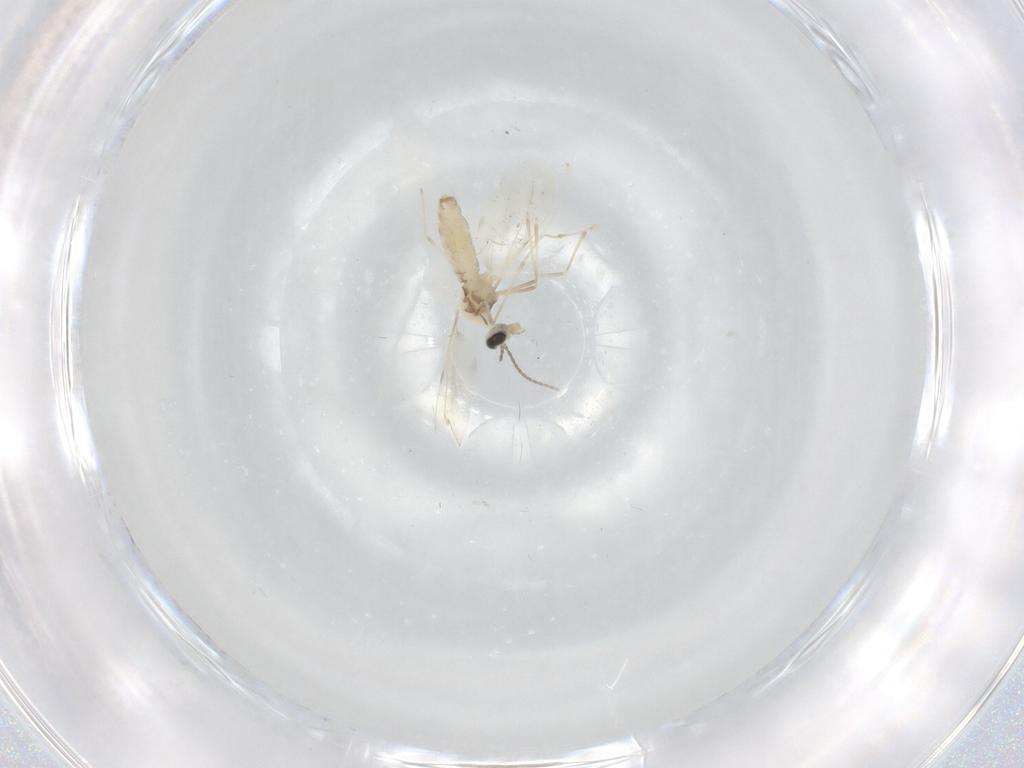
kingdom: Animalia
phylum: Arthropoda
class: Insecta
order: Diptera
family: Cecidomyiidae
